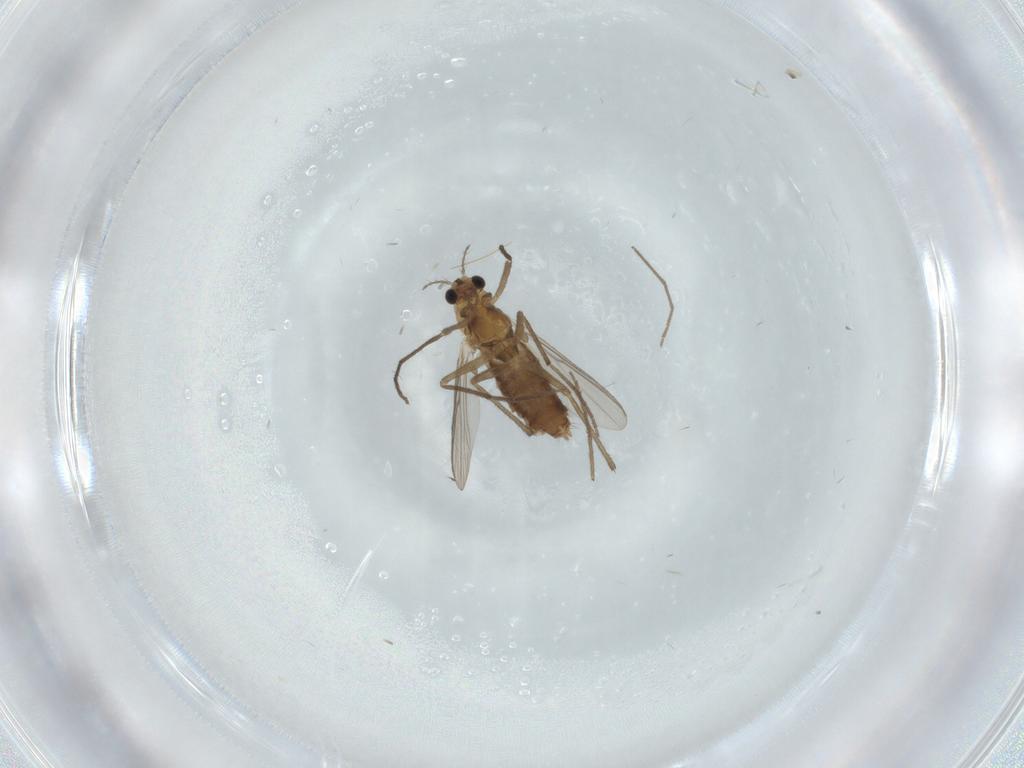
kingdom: Animalia
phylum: Arthropoda
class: Insecta
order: Diptera
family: Chironomidae
